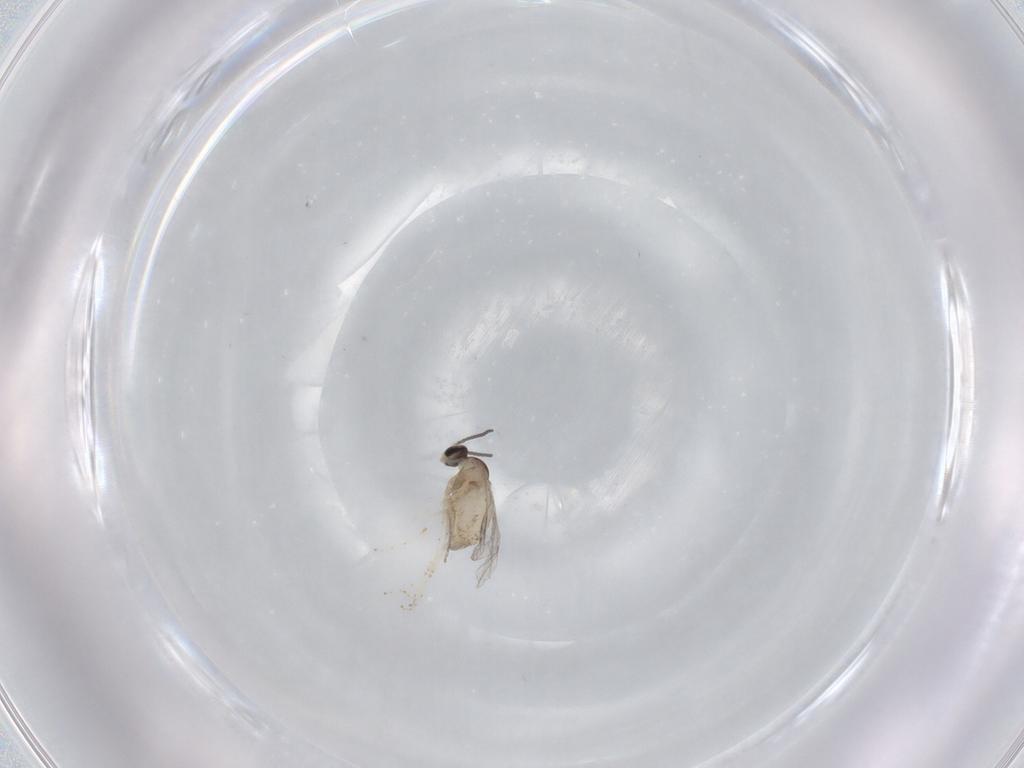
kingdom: Animalia
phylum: Arthropoda
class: Insecta
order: Diptera
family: Cecidomyiidae
